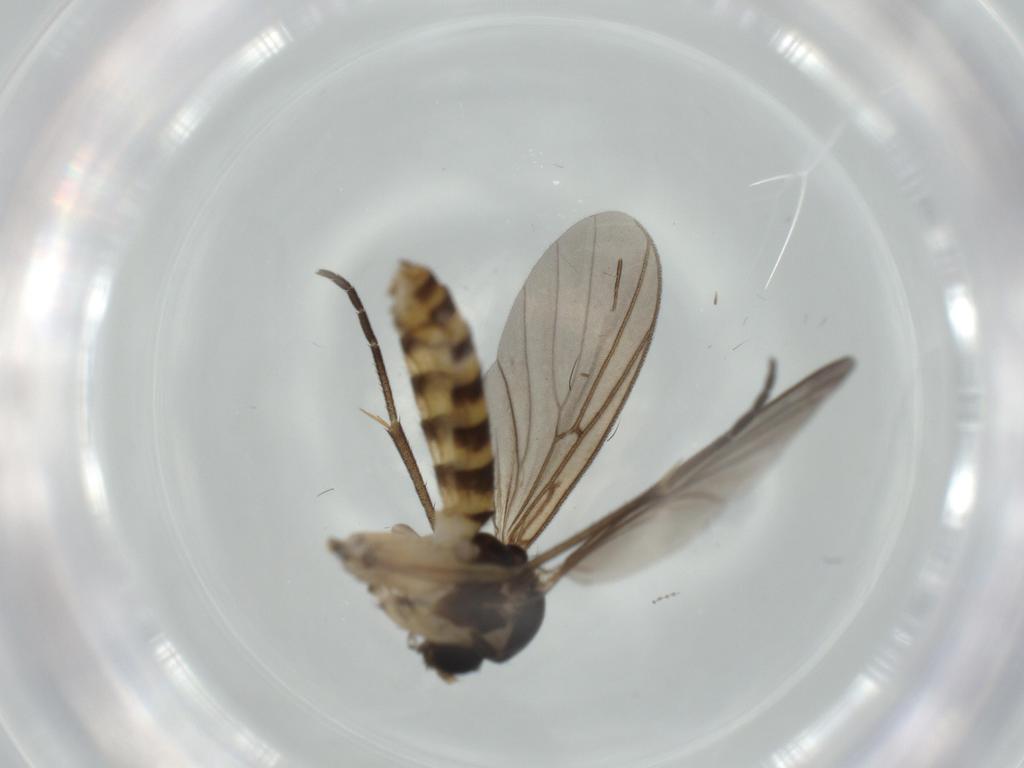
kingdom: Animalia
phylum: Arthropoda
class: Insecta
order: Diptera
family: Mycetophilidae
